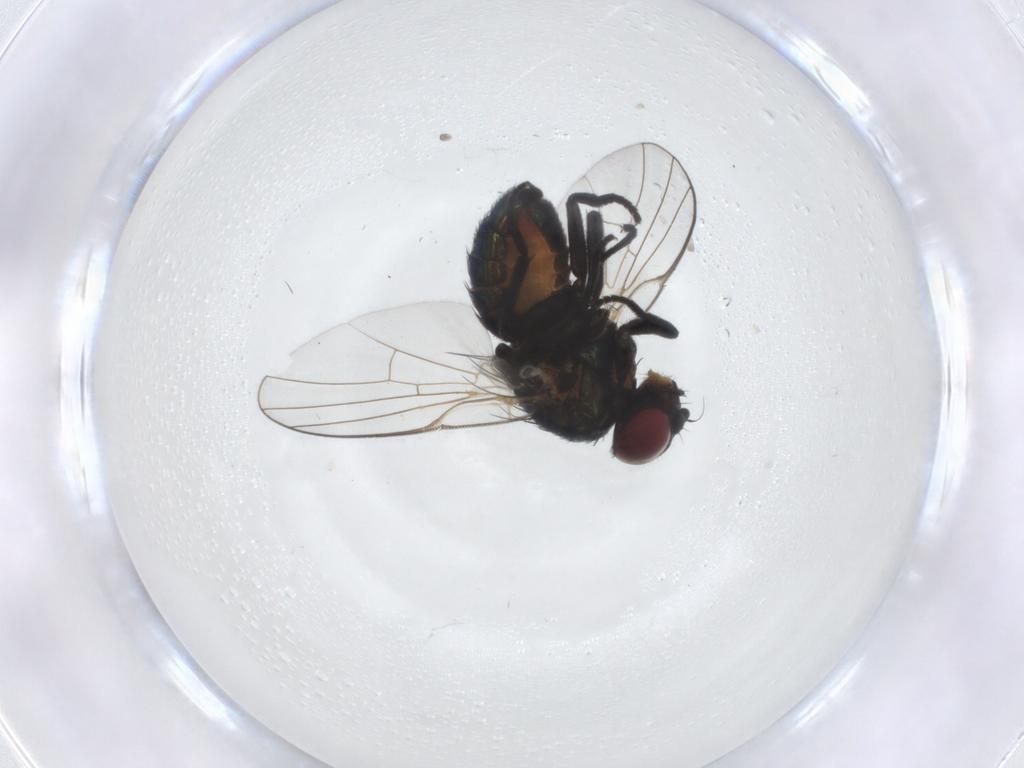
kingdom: Animalia
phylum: Arthropoda
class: Insecta
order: Diptera
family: Agromyzidae
